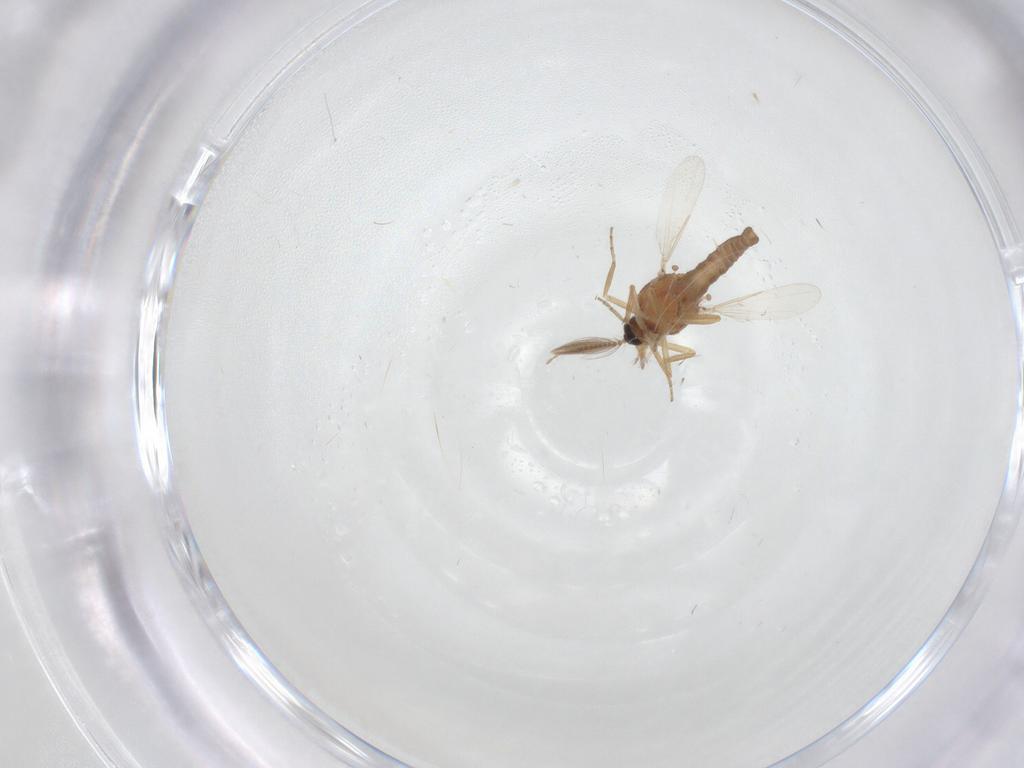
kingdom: Animalia
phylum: Arthropoda
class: Insecta
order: Diptera
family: Ceratopogonidae
